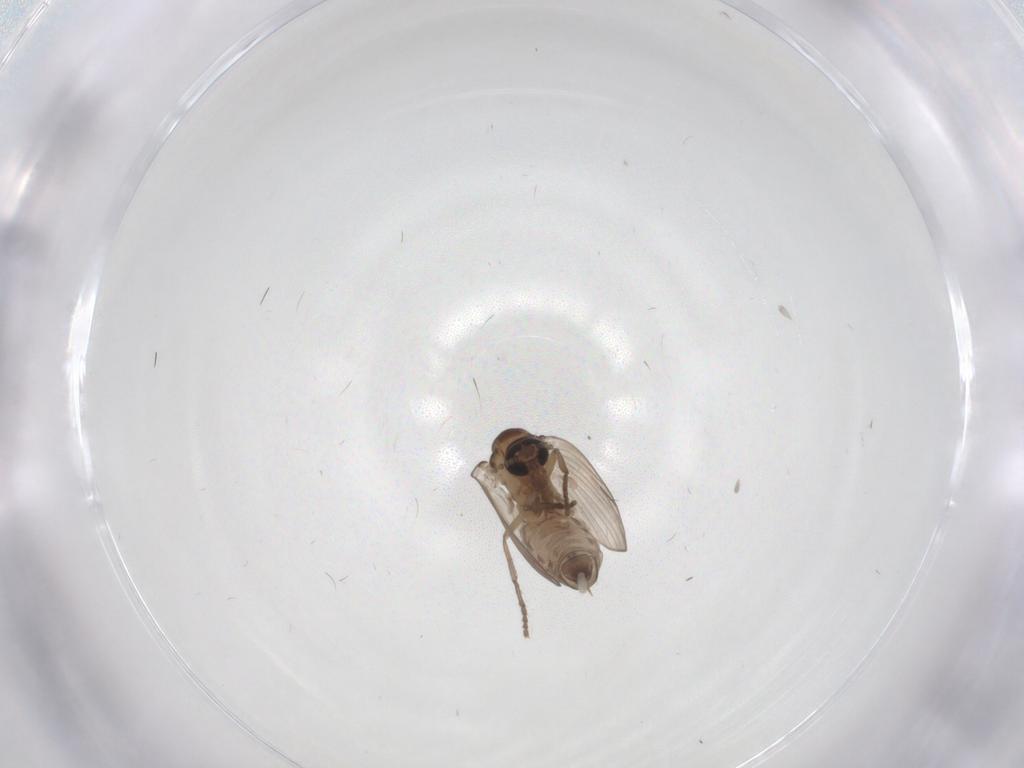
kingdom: Animalia
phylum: Arthropoda
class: Insecta
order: Diptera
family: Psychodidae
